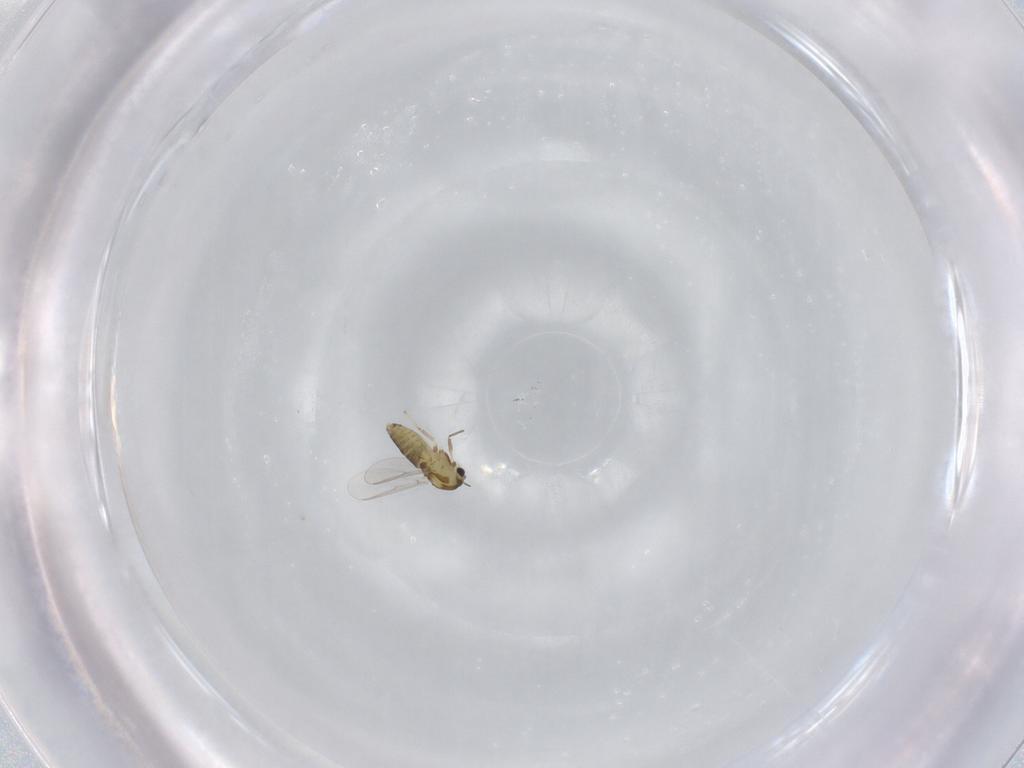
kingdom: Animalia
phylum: Arthropoda
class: Insecta
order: Diptera
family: Chironomidae
